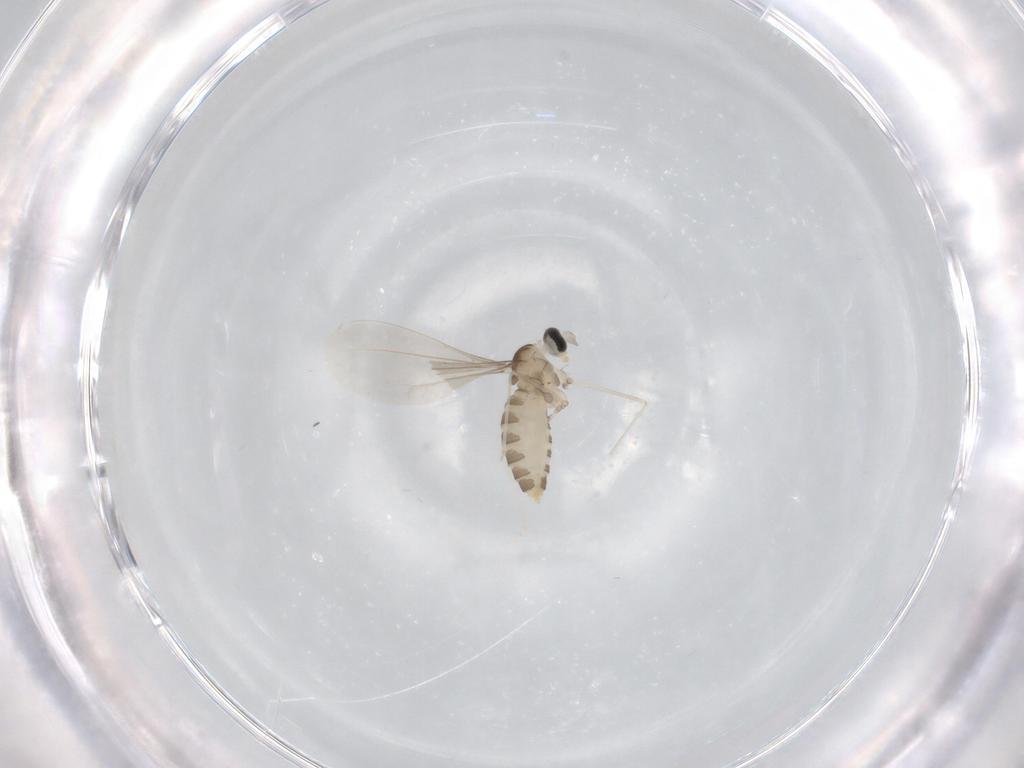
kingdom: Animalia
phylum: Arthropoda
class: Insecta
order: Diptera
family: Cecidomyiidae
